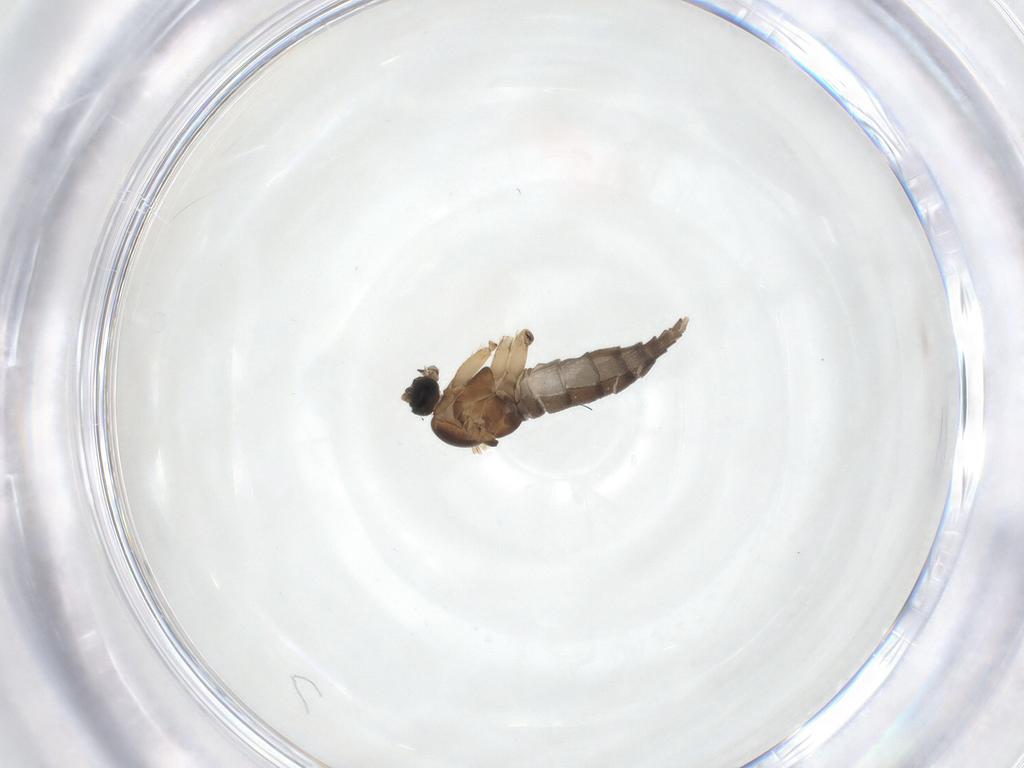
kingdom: Animalia
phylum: Arthropoda
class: Insecta
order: Diptera
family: Sciaridae
